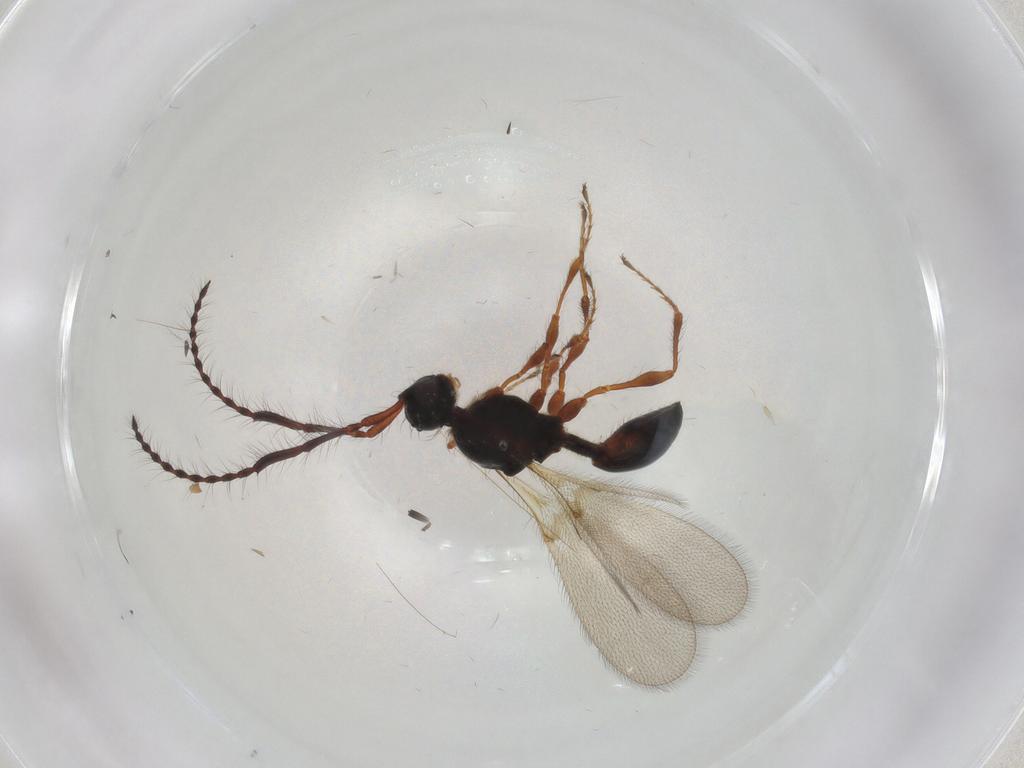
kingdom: Animalia
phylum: Arthropoda
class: Insecta
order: Hymenoptera
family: Diapriidae
